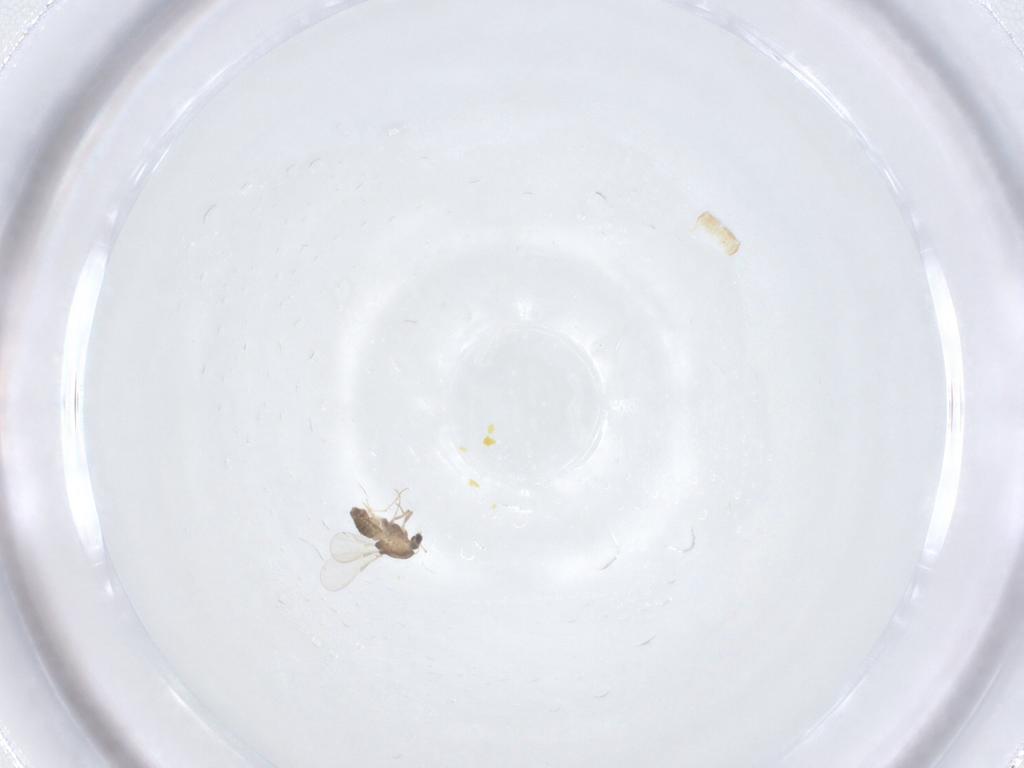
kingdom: Animalia
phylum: Arthropoda
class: Insecta
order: Diptera
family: Chironomidae
